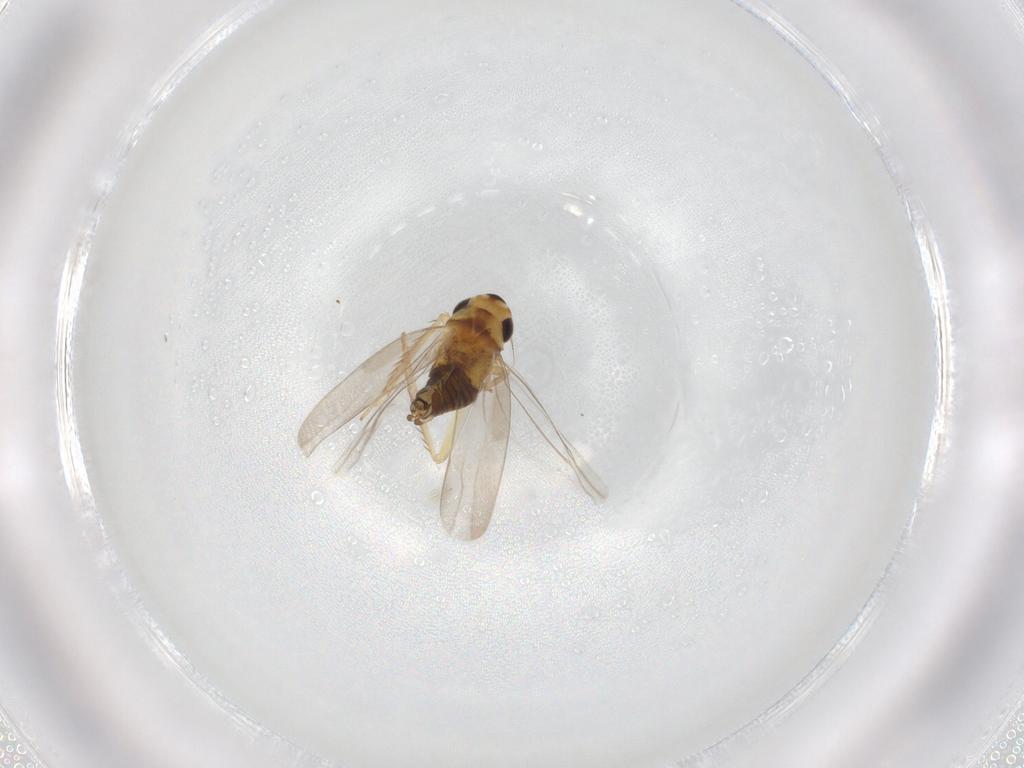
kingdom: Animalia
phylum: Arthropoda
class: Insecta
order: Hemiptera
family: Cicadellidae
